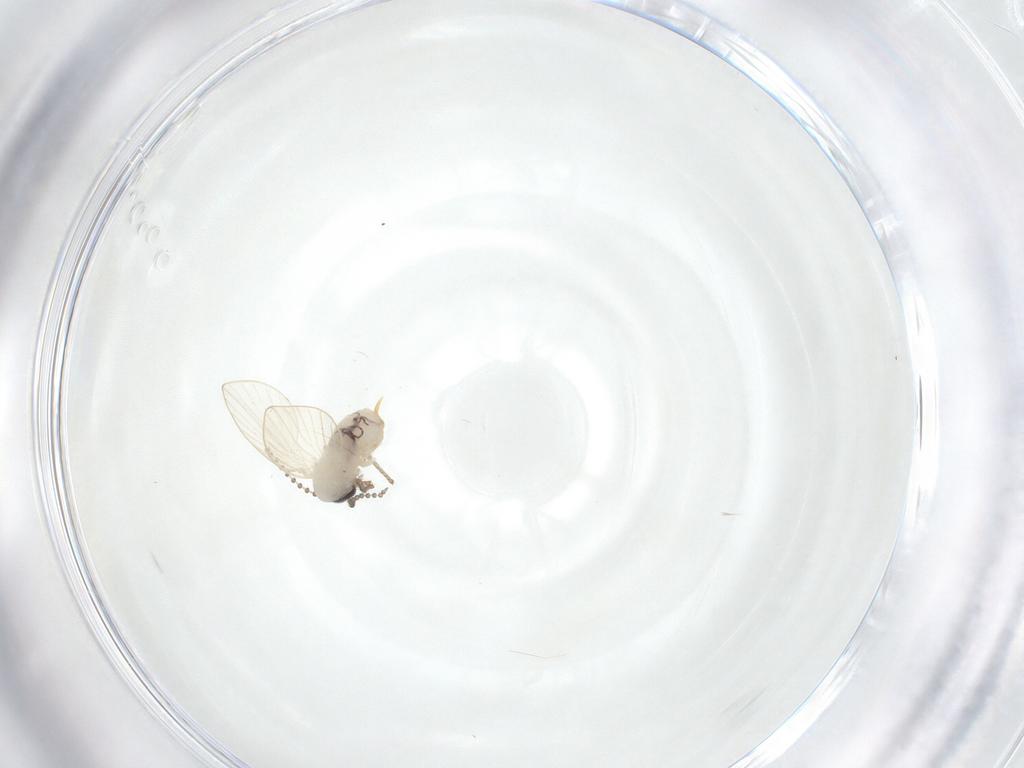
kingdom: Animalia
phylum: Arthropoda
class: Insecta
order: Diptera
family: Psychodidae
